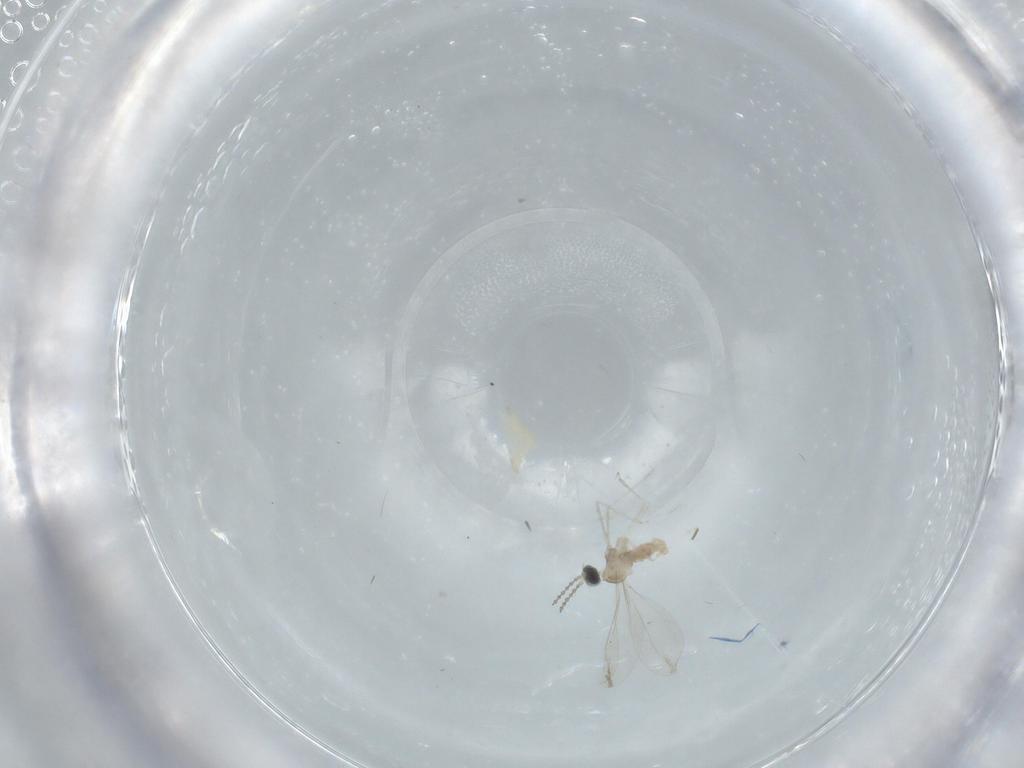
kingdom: Animalia
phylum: Arthropoda
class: Insecta
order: Diptera
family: Cecidomyiidae
